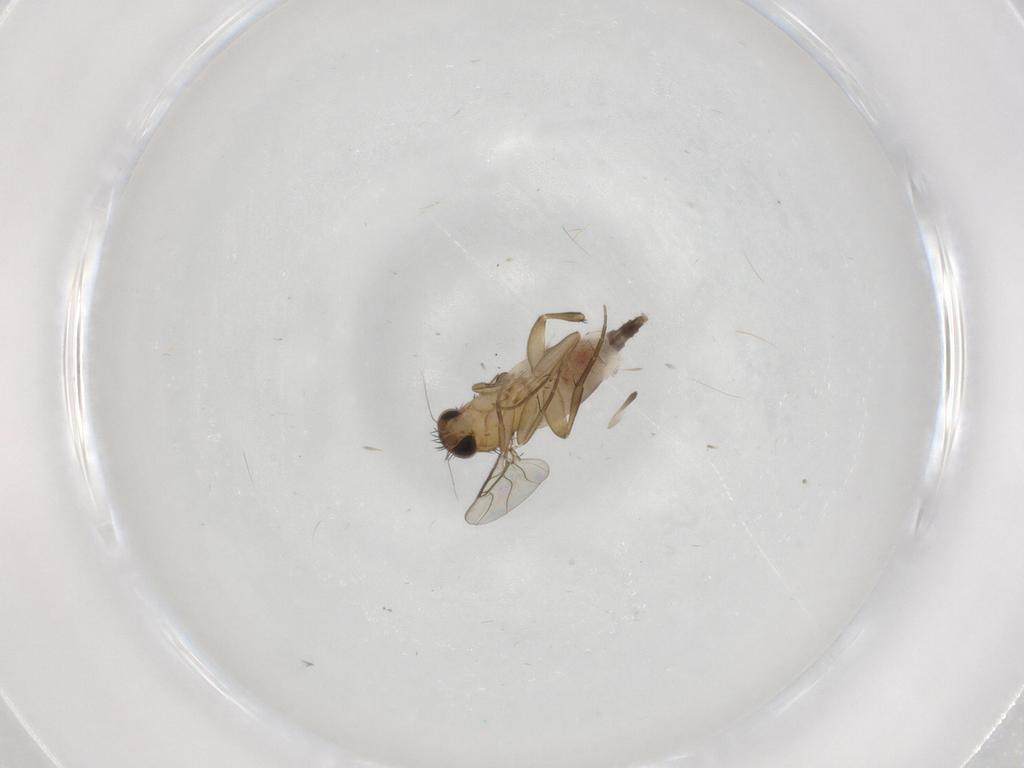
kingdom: Animalia
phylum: Arthropoda
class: Insecta
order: Diptera
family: Phoridae
